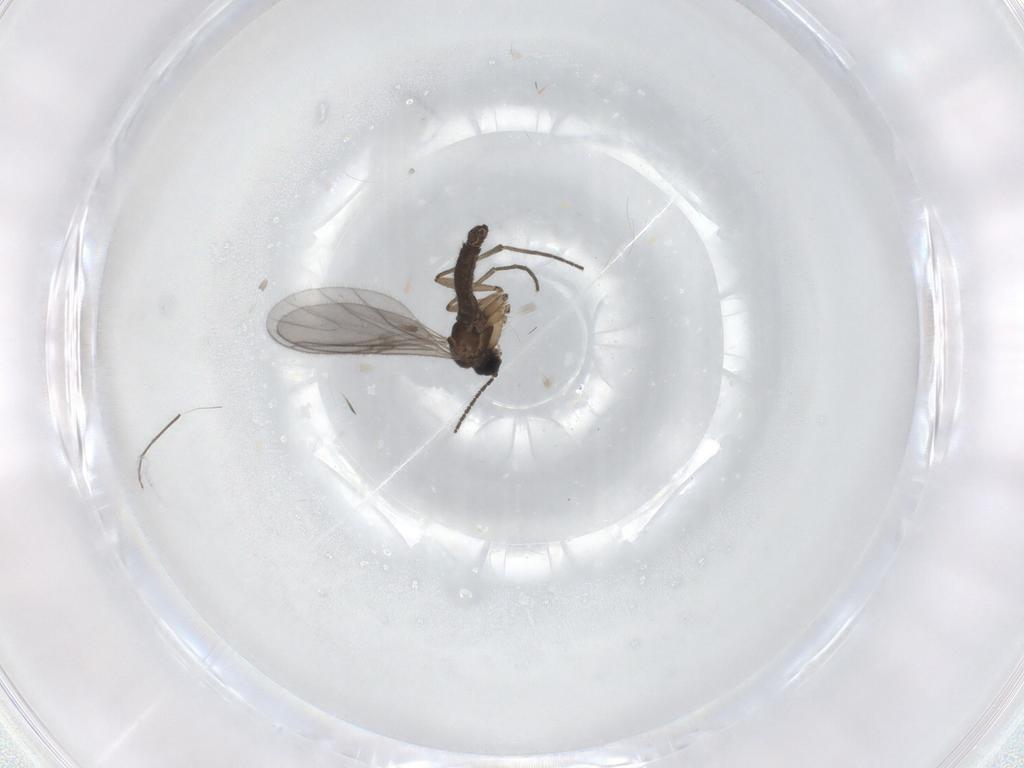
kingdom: Animalia
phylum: Arthropoda
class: Insecta
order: Diptera
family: Sciaridae
